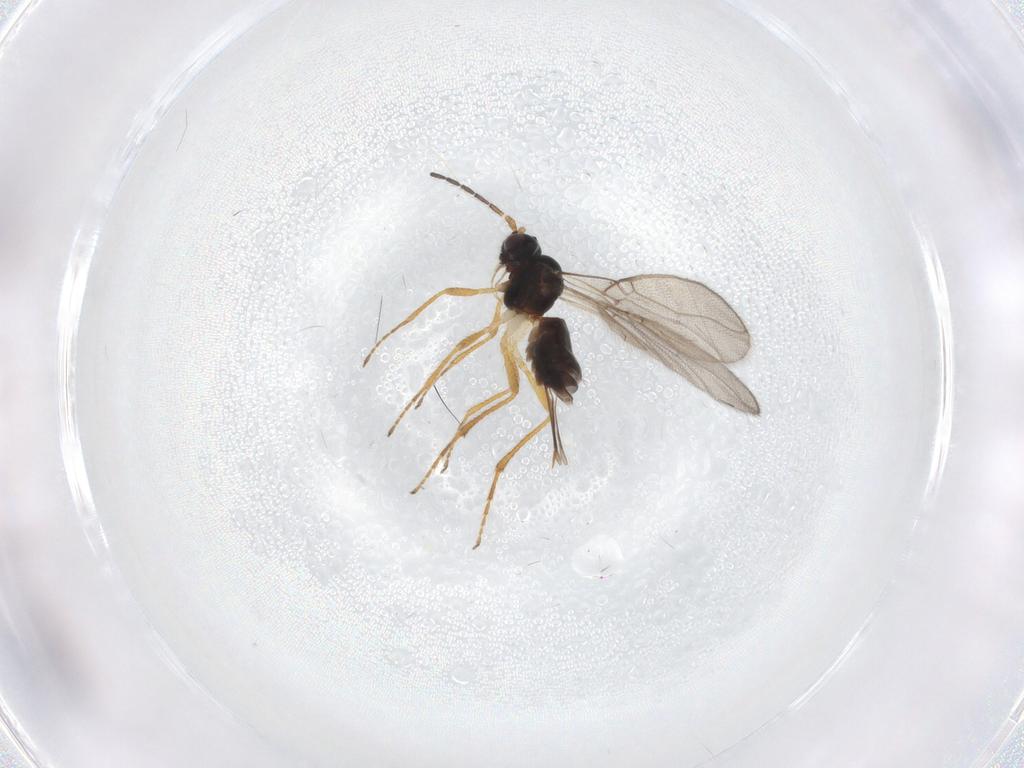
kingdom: Animalia
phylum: Arthropoda
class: Insecta
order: Hymenoptera
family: Braconidae
